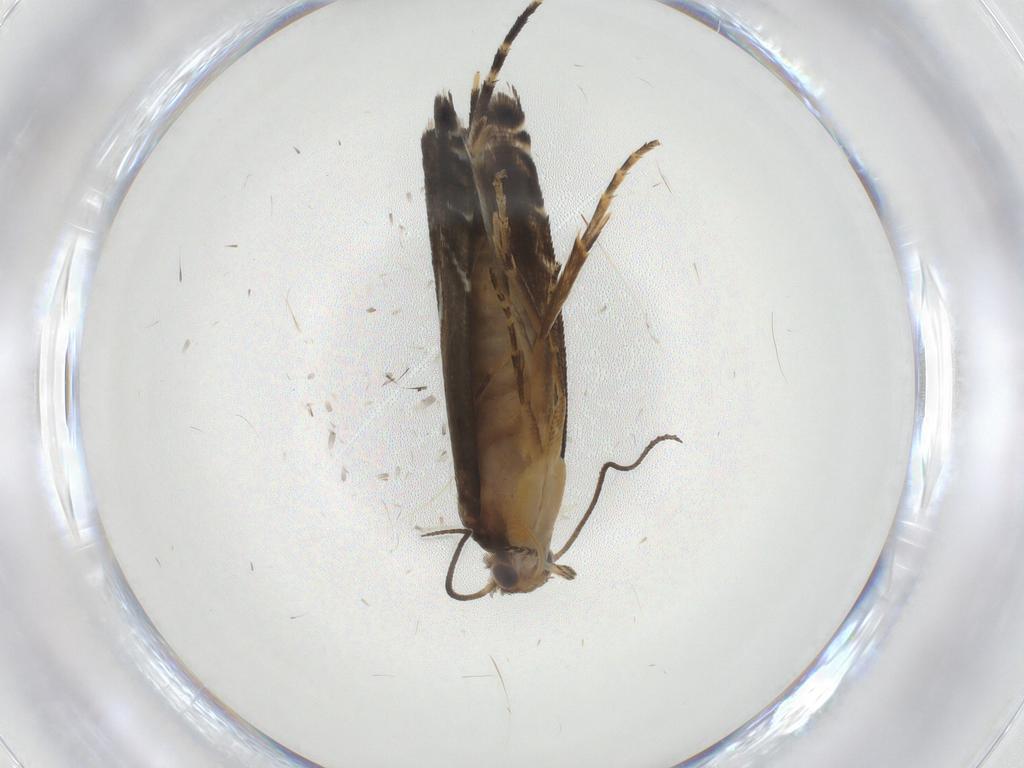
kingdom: Animalia
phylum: Arthropoda
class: Insecta
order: Lepidoptera
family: Glyphipterigidae
